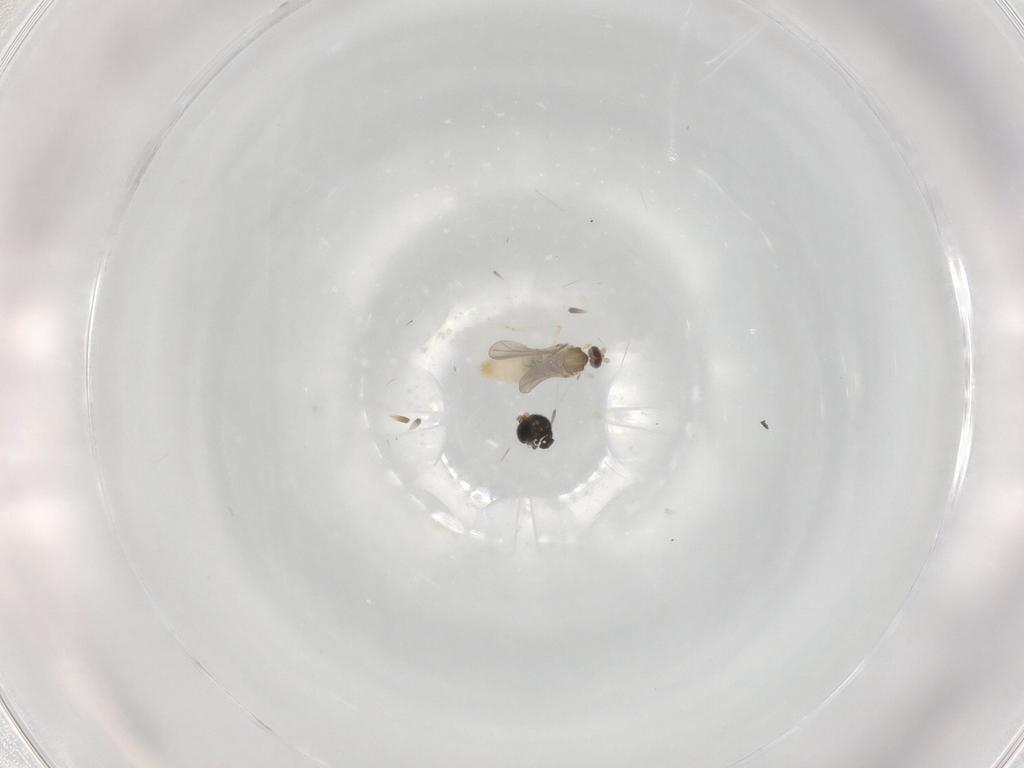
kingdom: Animalia
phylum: Arthropoda
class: Insecta
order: Diptera
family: Sciaridae
